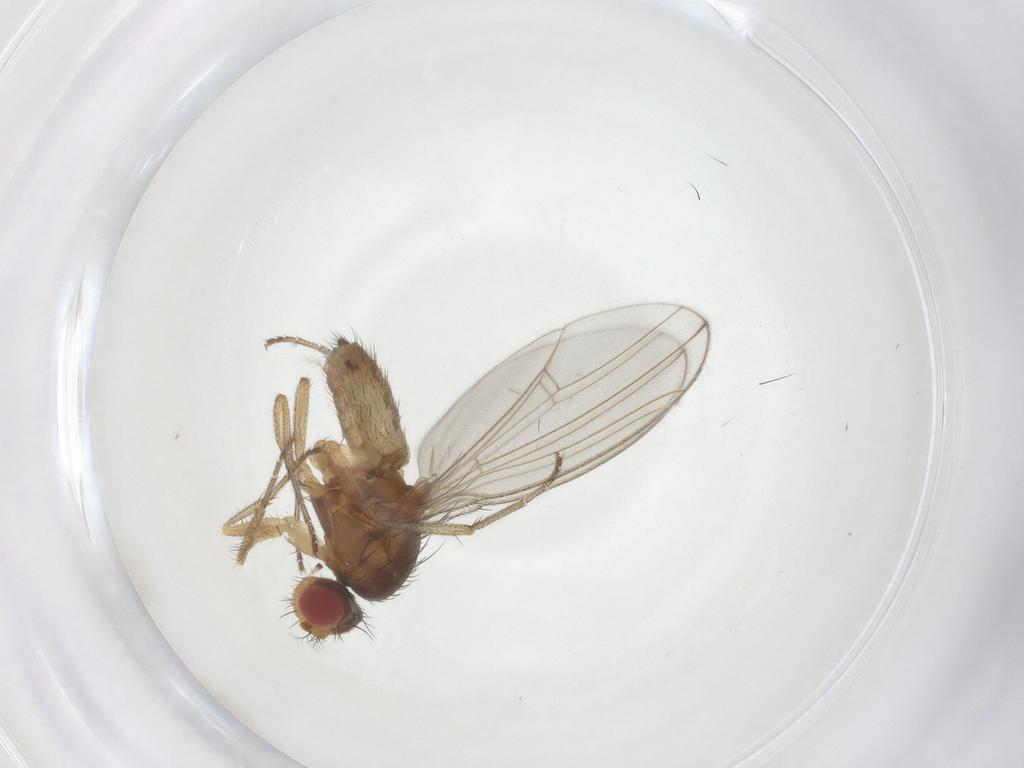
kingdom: Animalia
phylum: Arthropoda
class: Insecta
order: Diptera
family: Drosophilidae
